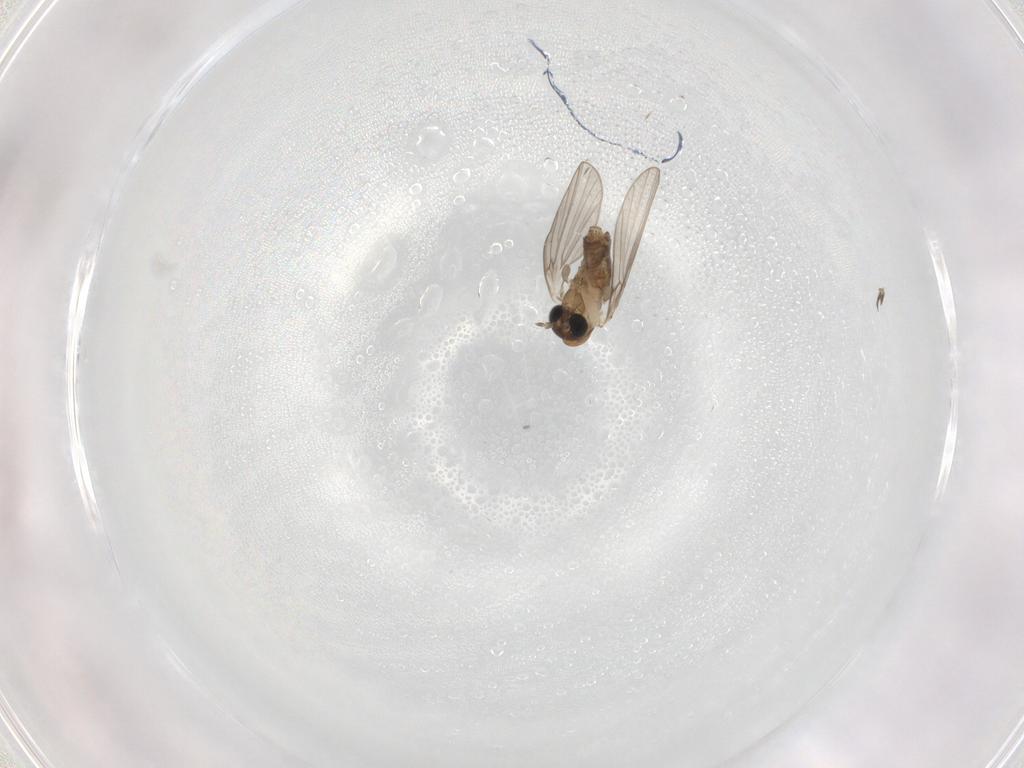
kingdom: Animalia
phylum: Arthropoda
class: Insecta
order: Diptera
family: Psychodidae
